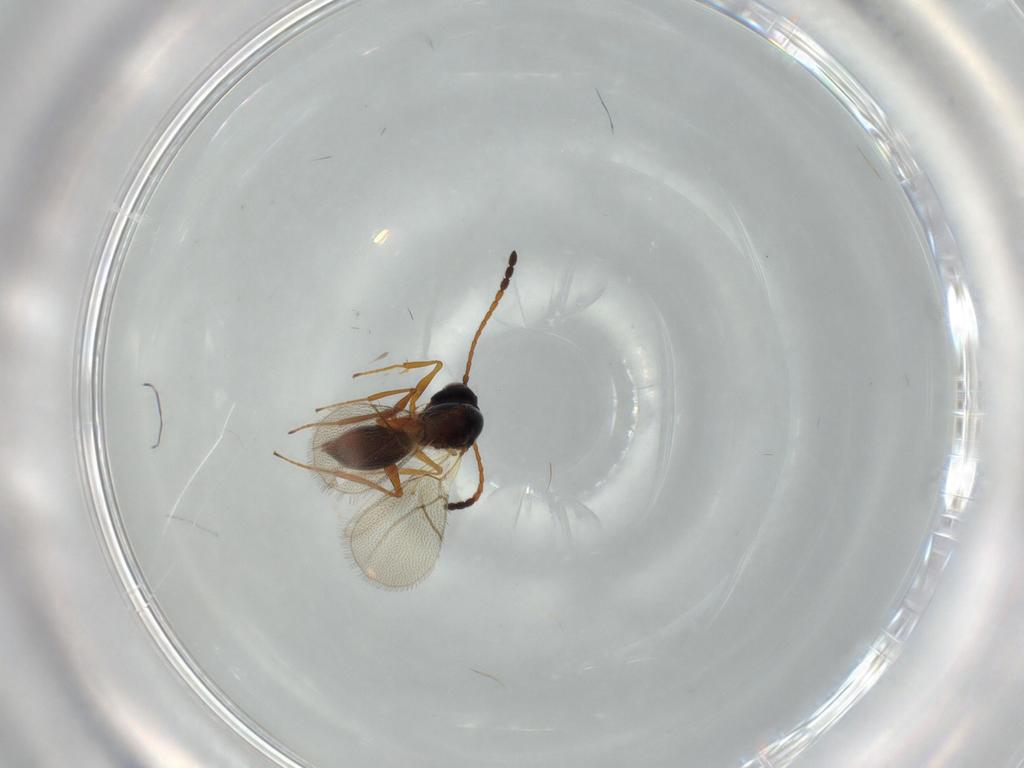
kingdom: Animalia
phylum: Arthropoda
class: Insecta
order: Hymenoptera
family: Figitidae
